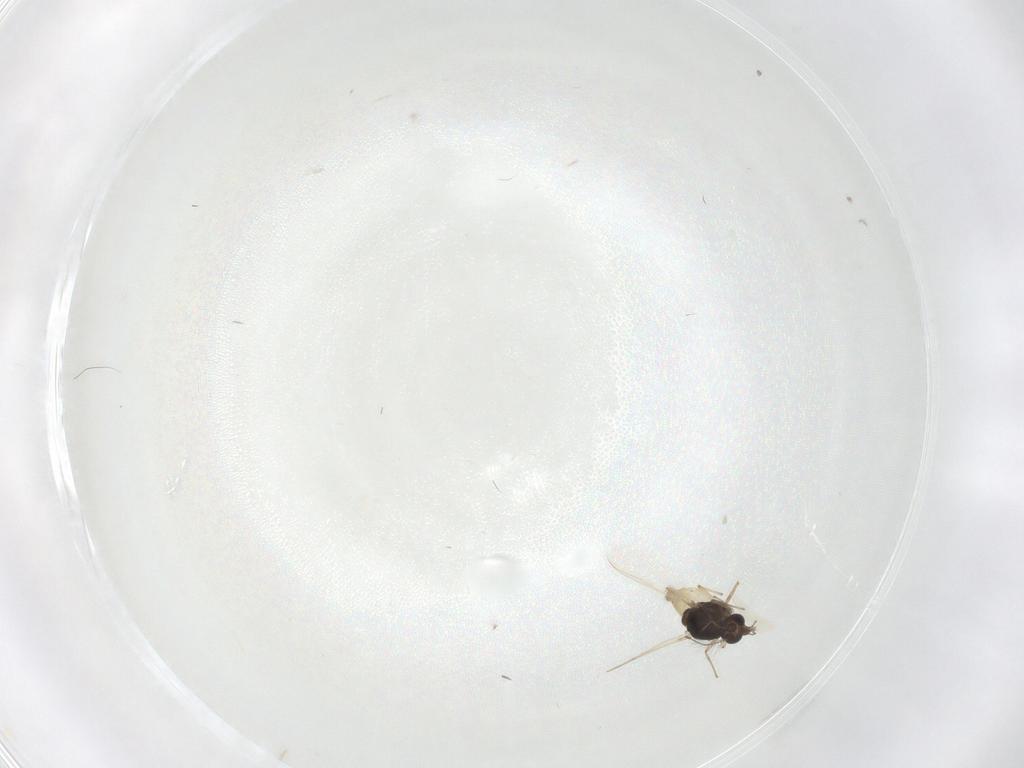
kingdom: Animalia
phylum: Arthropoda
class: Insecta
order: Diptera
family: Chironomidae
